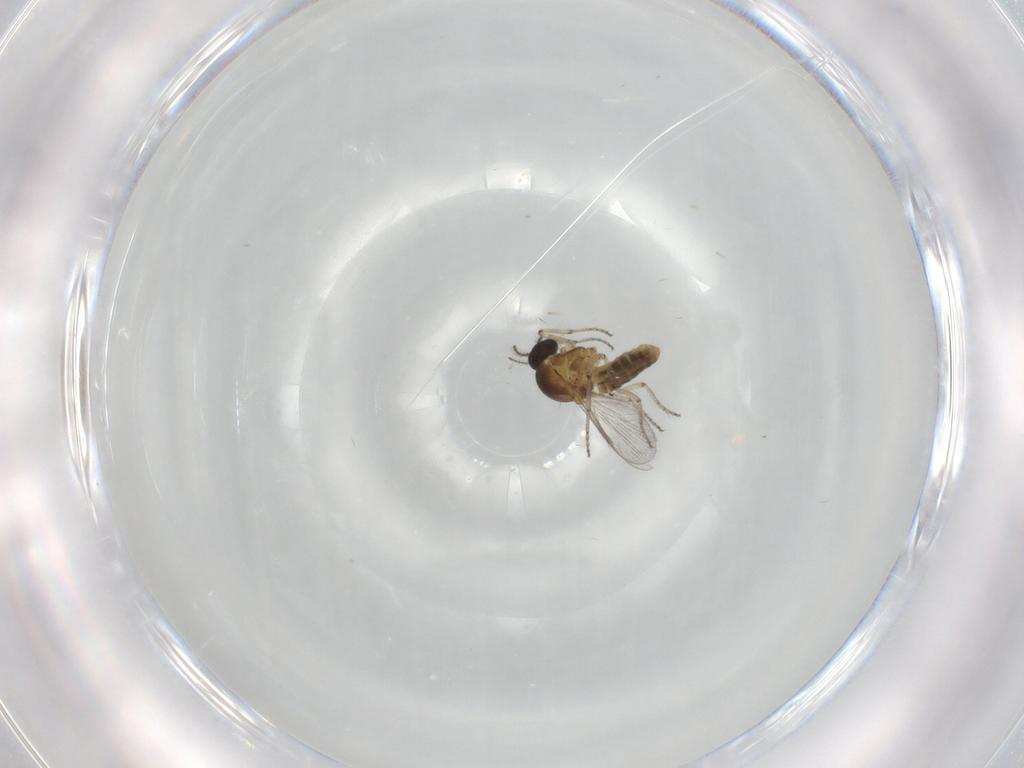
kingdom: Animalia
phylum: Arthropoda
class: Insecta
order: Diptera
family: Ceratopogonidae
